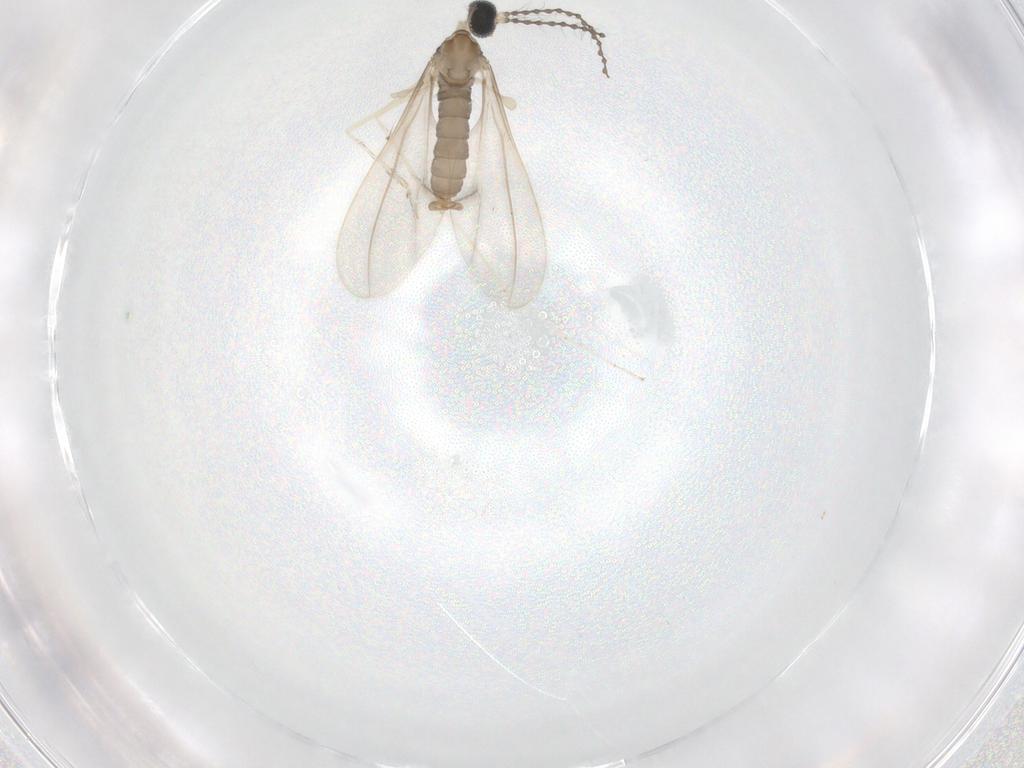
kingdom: Animalia
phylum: Arthropoda
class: Insecta
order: Diptera
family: Cecidomyiidae
